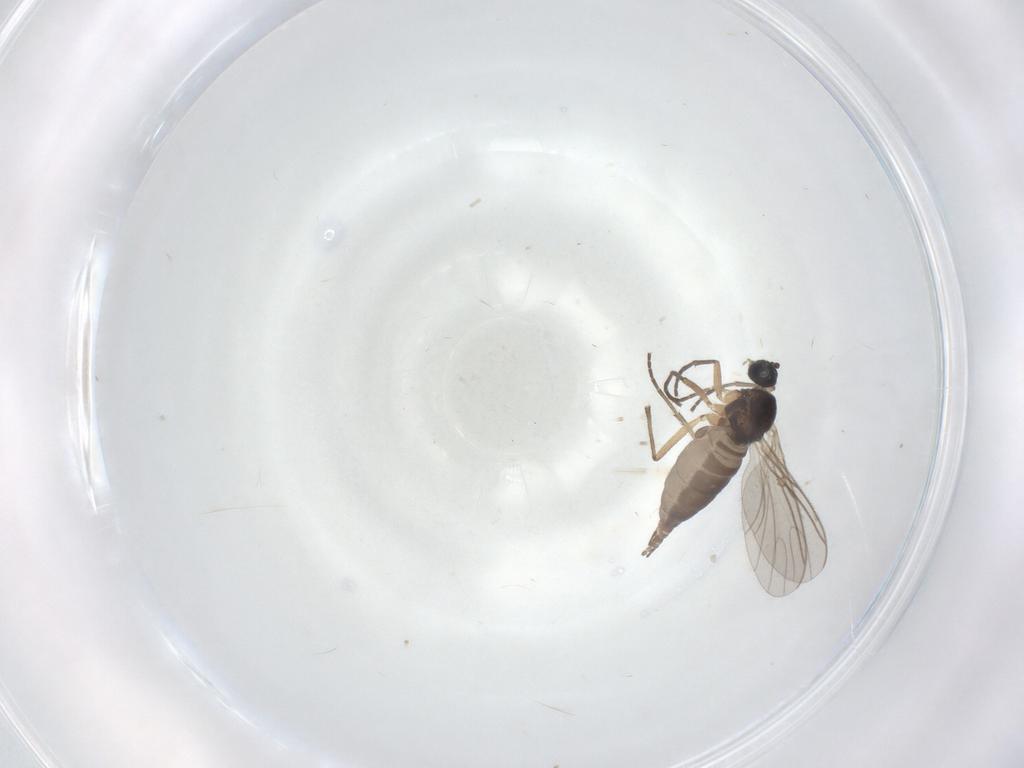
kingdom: Animalia
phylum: Arthropoda
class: Insecta
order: Diptera
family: Sciaridae
